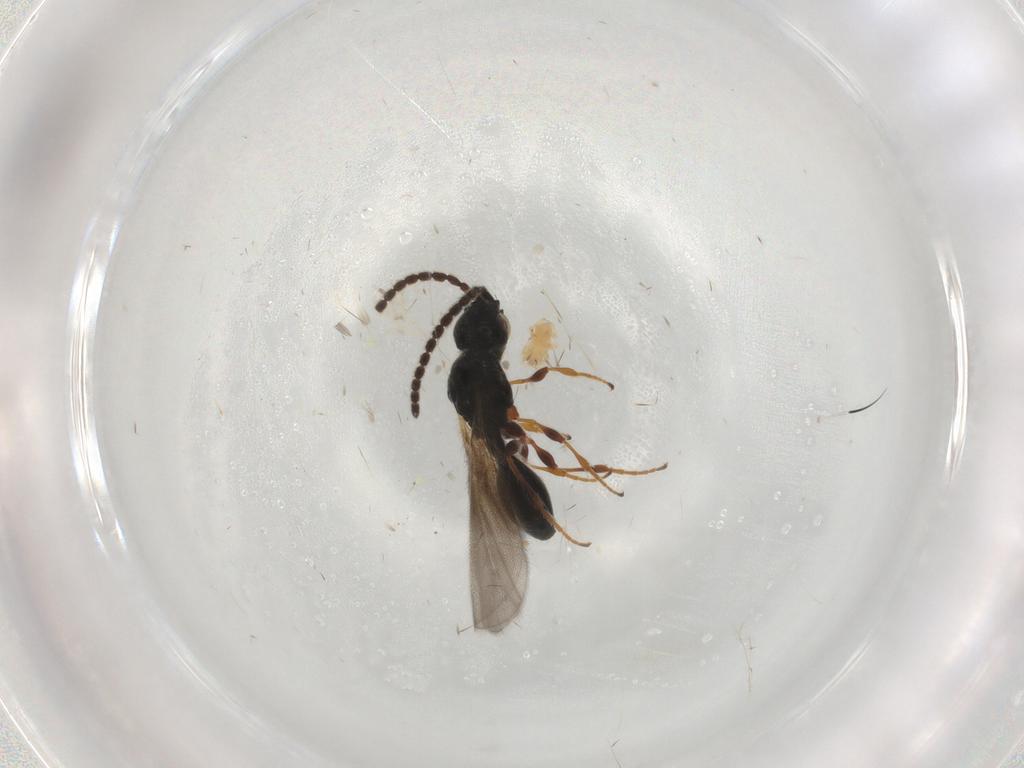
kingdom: Animalia
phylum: Arthropoda
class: Insecta
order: Hymenoptera
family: Diapriidae
